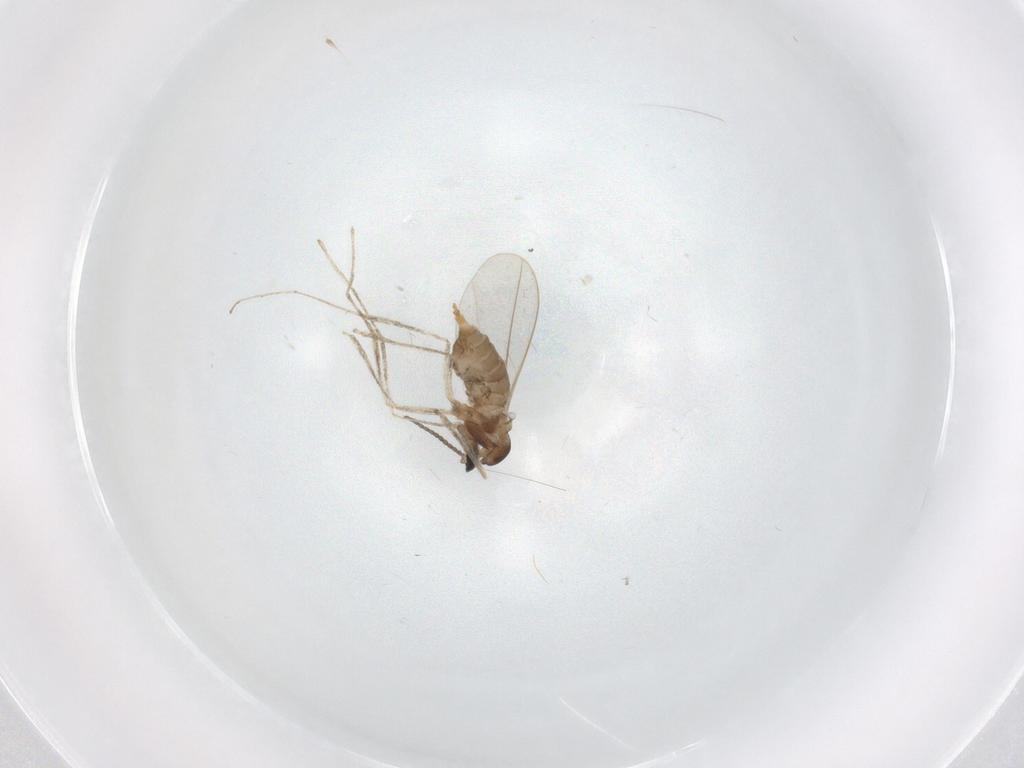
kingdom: Animalia
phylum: Arthropoda
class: Insecta
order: Diptera
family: Cecidomyiidae
